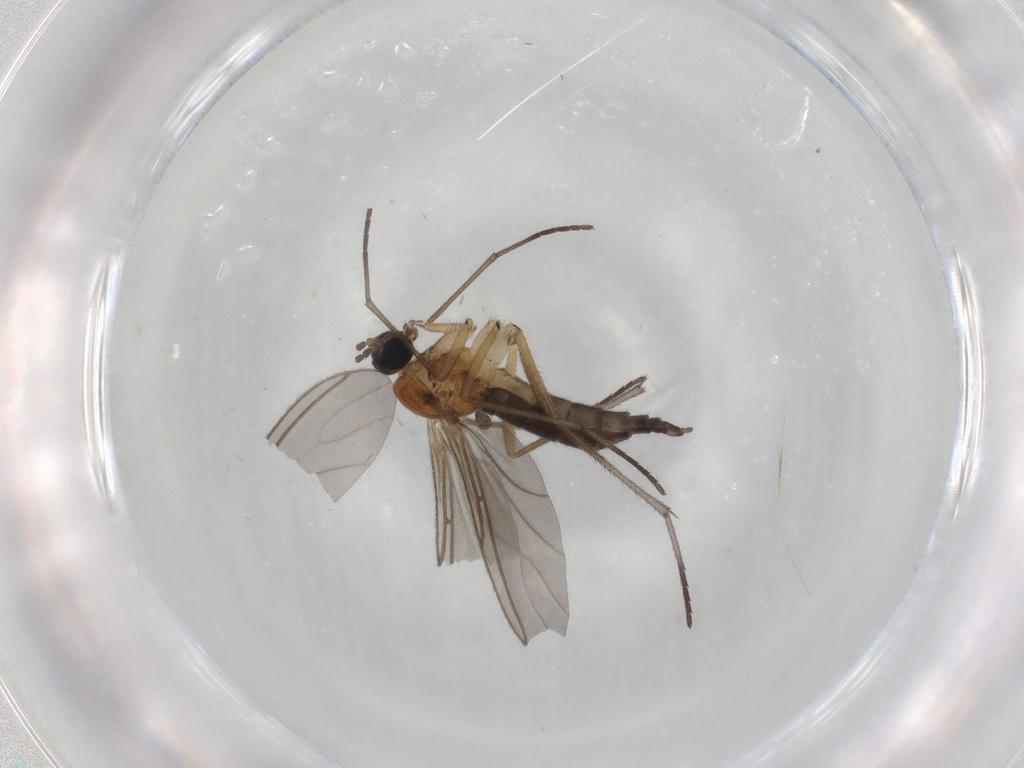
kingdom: Animalia
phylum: Arthropoda
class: Insecta
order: Diptera
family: Sciaridae
